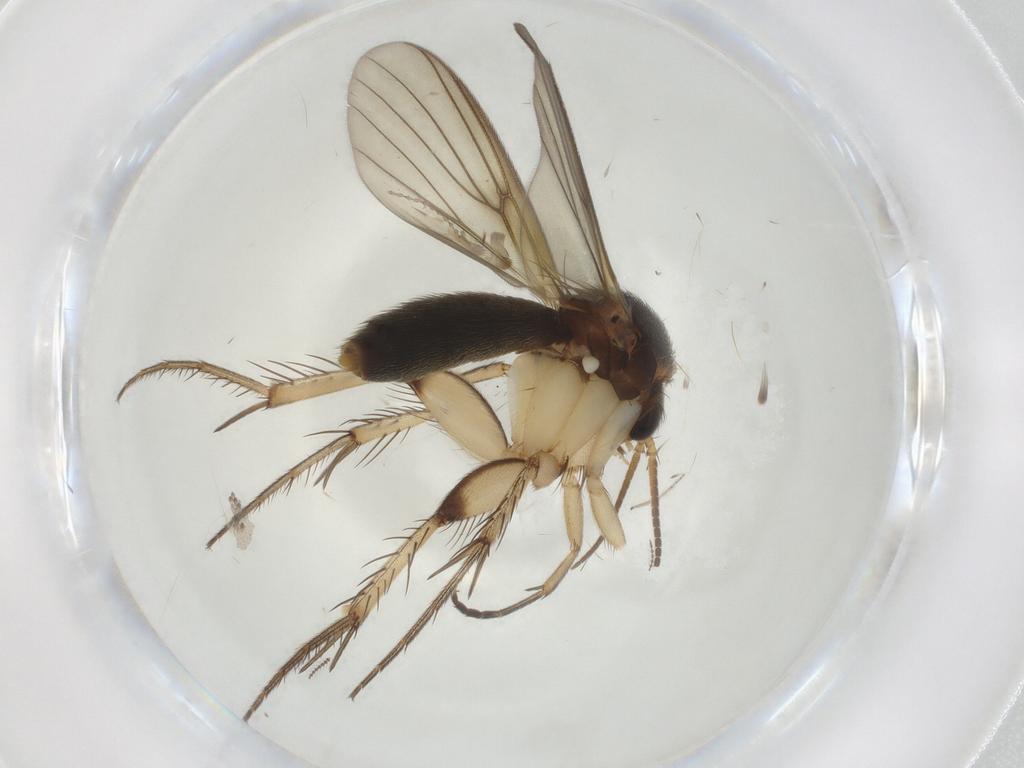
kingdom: Animalia
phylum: Arthropoda
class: Insecta
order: Diptera
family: Mycetophilidae
